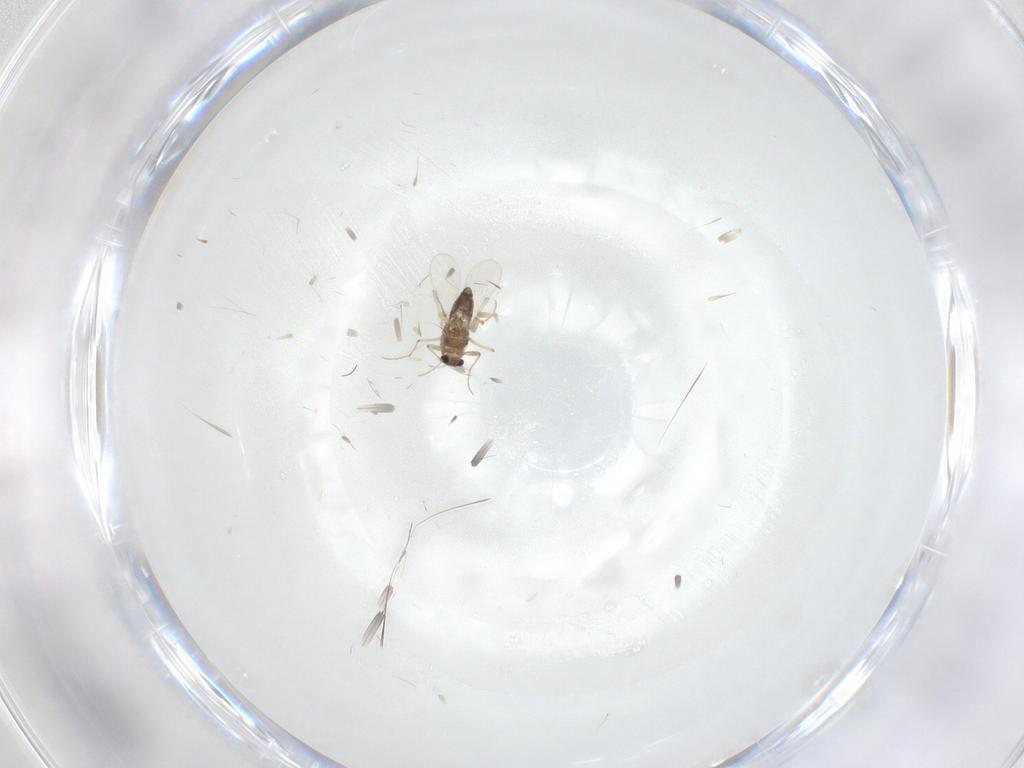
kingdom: Animalia
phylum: Arthropoda
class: Insecta
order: Diptera
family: Chironomidae
